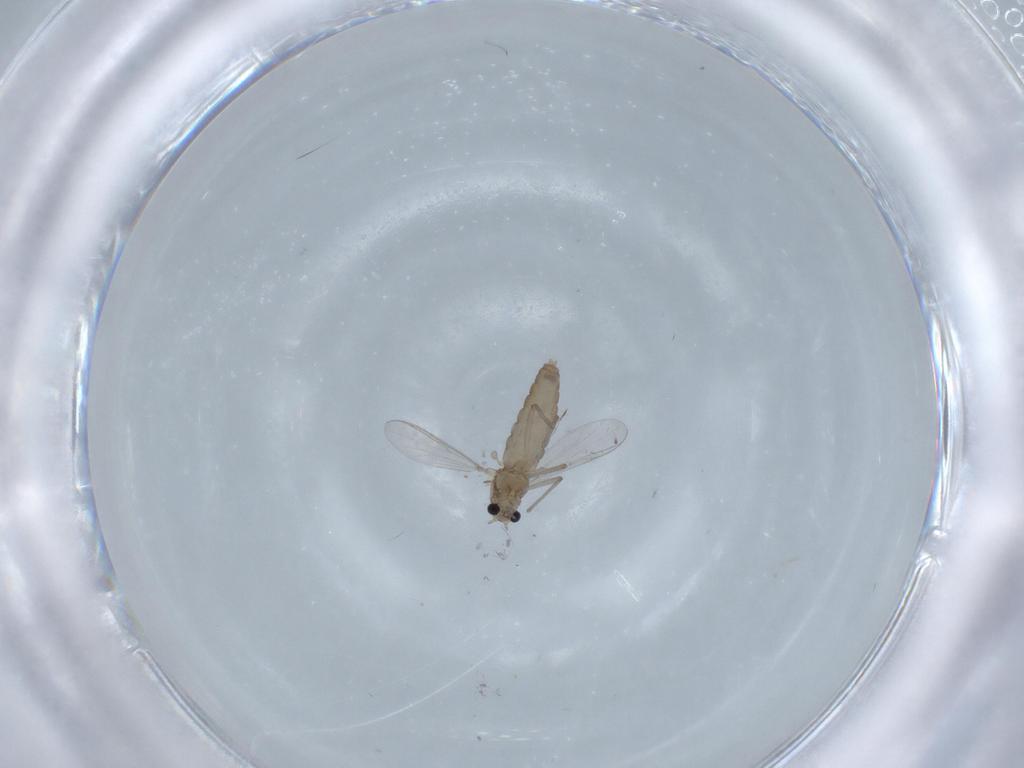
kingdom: Animalia
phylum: Arthropoda
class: Insecta
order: Diptera
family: Chironomidae
